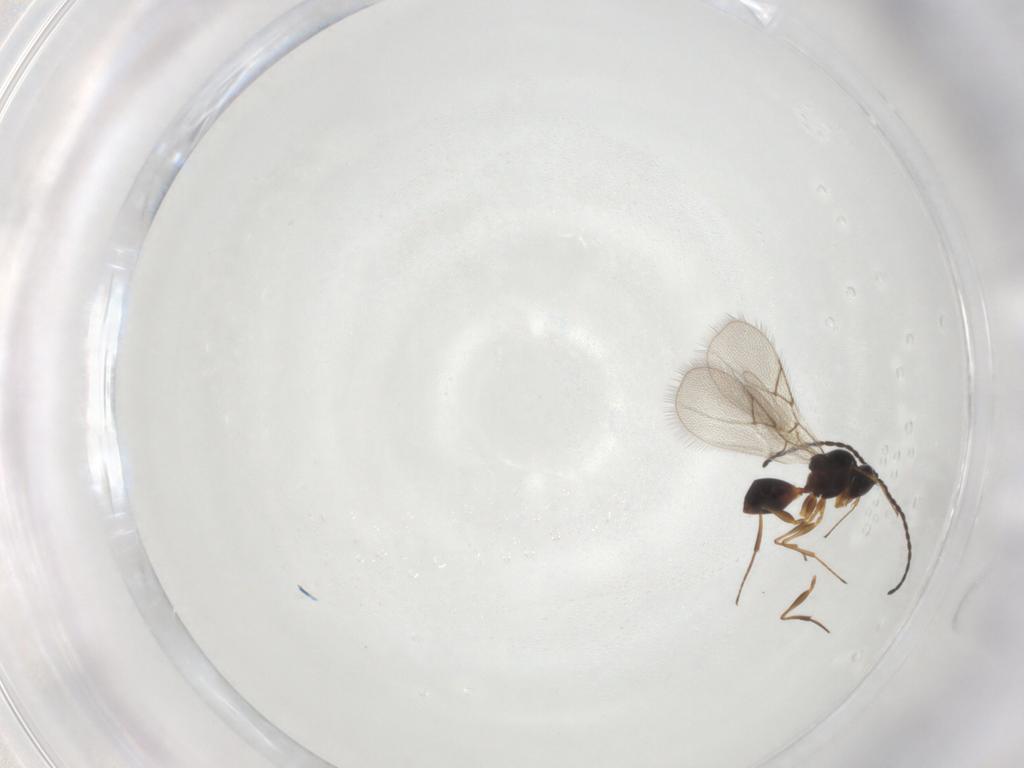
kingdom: Animalia
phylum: Arthropoda
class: Insecta
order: Hymenoptera
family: Figitidae
